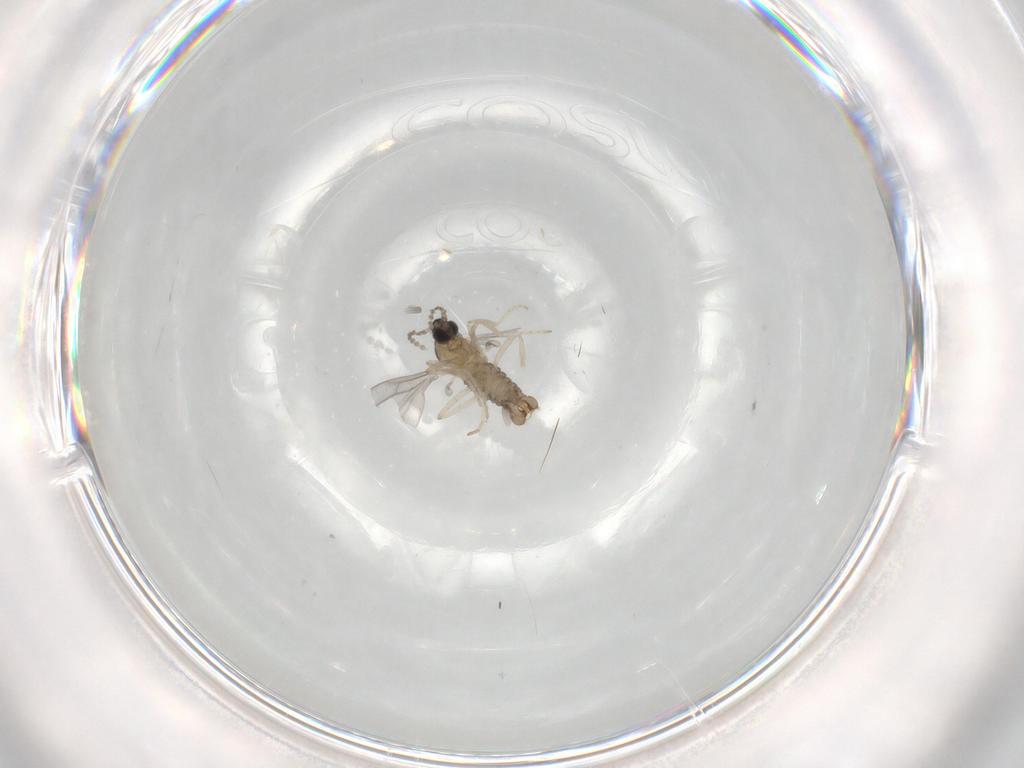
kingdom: Animalia
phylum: Arthropoda
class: Insecta
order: Diptera
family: Cecidomyiidae
